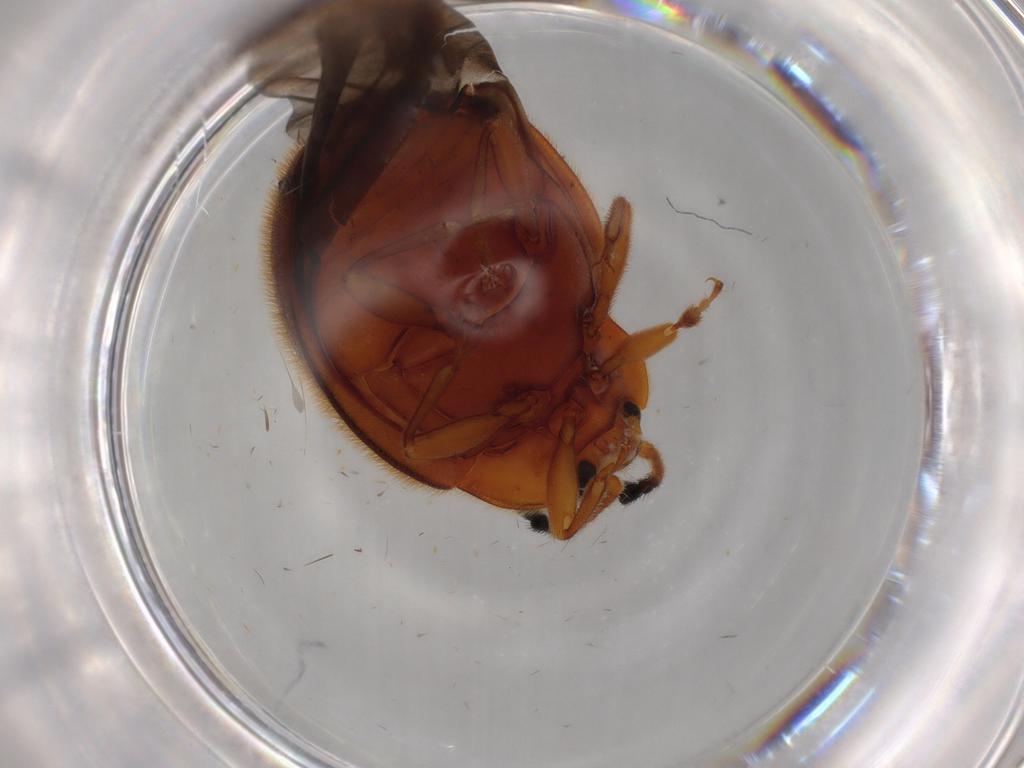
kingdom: Animalia
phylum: Arthropoda
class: Insecta
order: Coleoptera
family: Endomychidae
